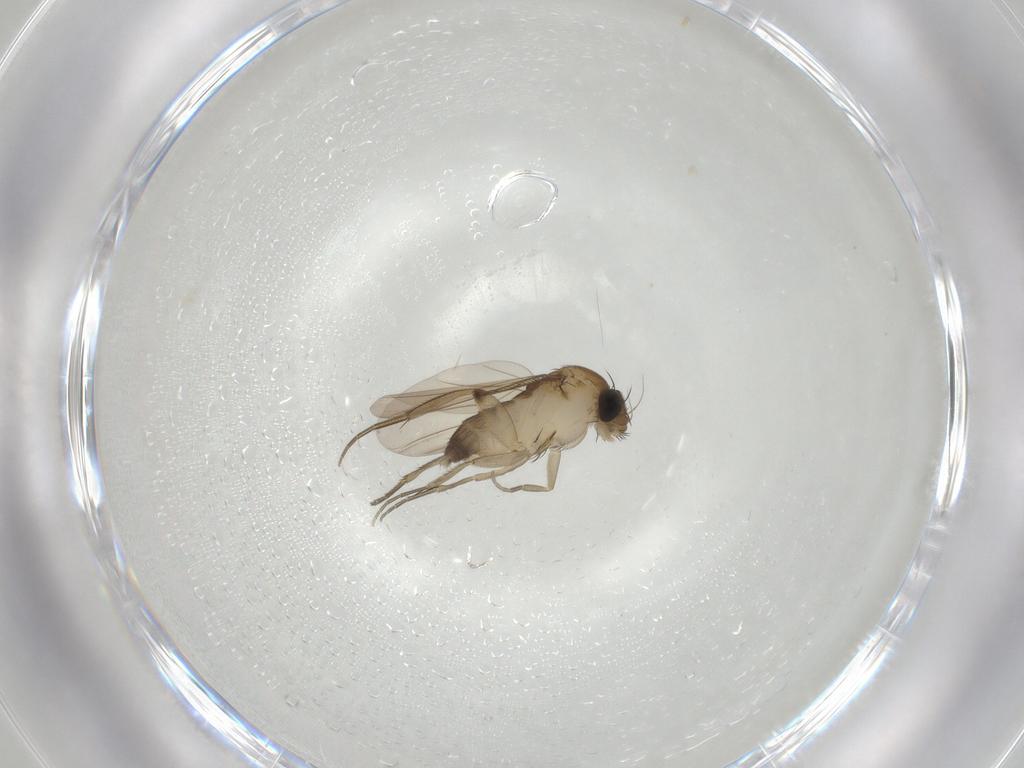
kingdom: Animalia
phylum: Arthropoda
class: Insecta
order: Diptera
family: Phoridae
